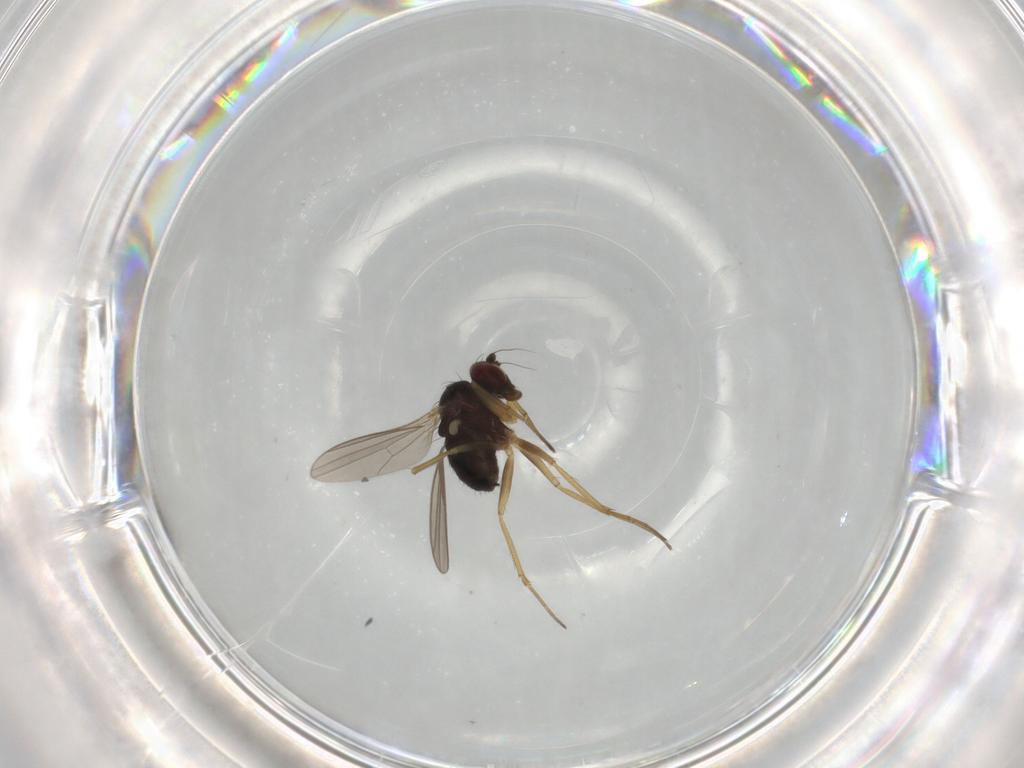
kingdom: Animalia
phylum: Arthropoda
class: Insecta
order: Diptera
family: Dolichopodidae
